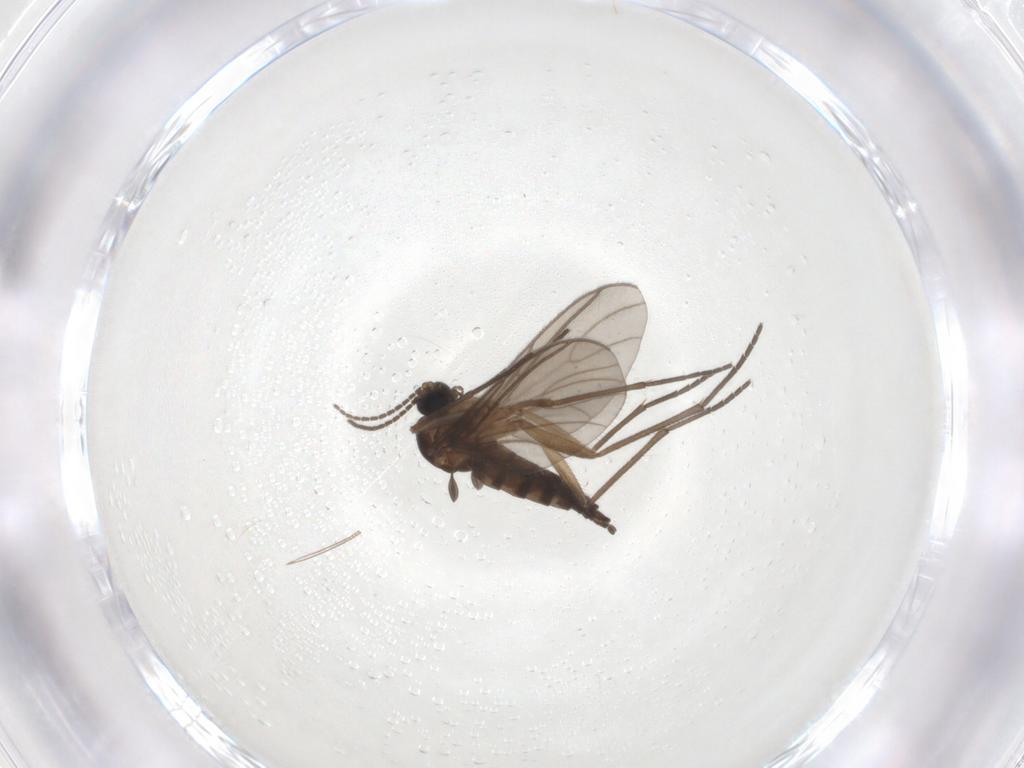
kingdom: Animalia
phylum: Arthropoda
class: Insecta
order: Diptera
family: Sciaridae
